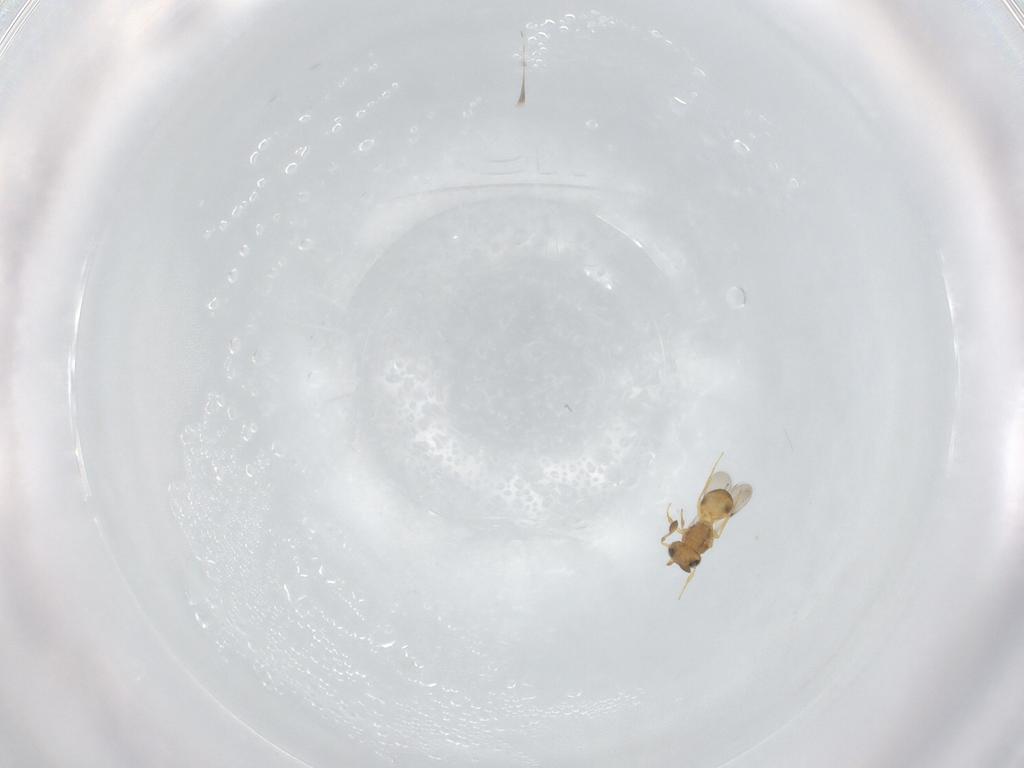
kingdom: Animalia
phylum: Arthropoda
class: Insecta
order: Hymenoptera
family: Scelionidae
